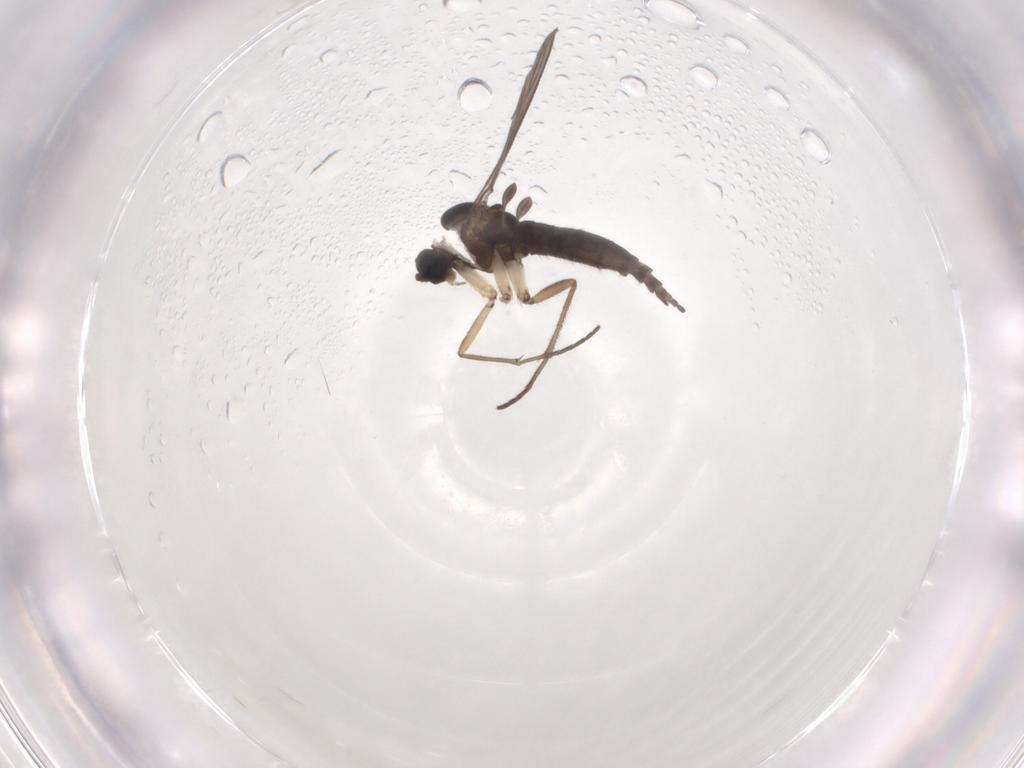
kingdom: Animalia
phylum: Arthropoda
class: Insecta
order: Diptera
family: Sciaridae
